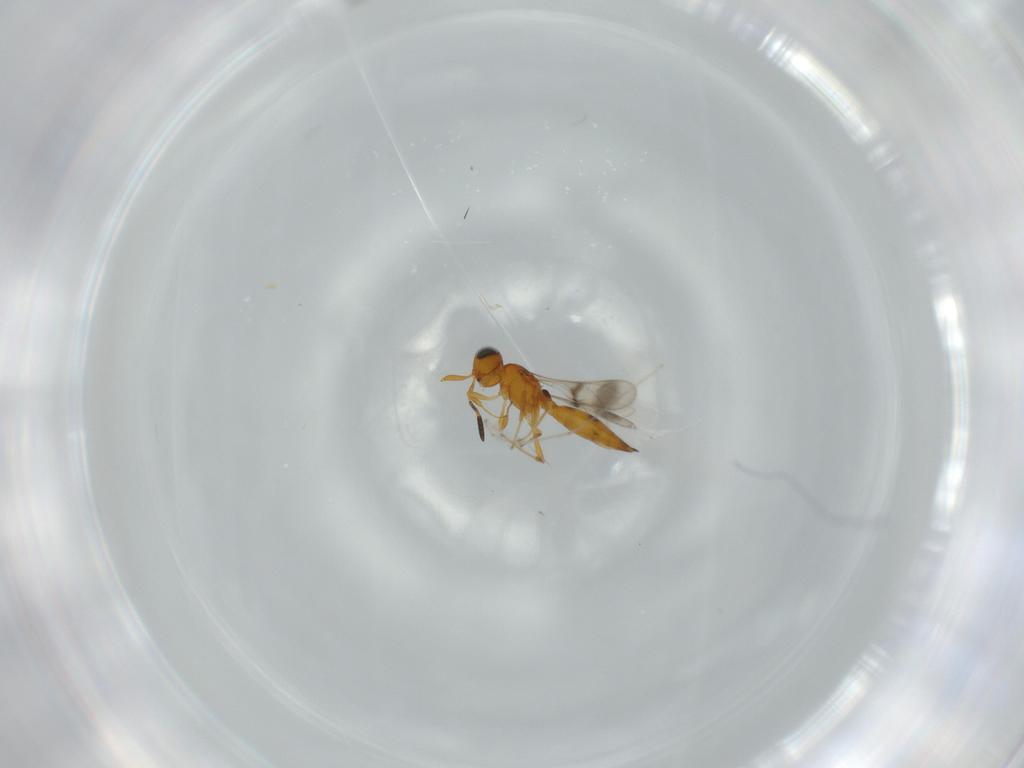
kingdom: Animalia
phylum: Arthropoda
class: Insecta
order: Hymenoptera
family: Scelionidae
